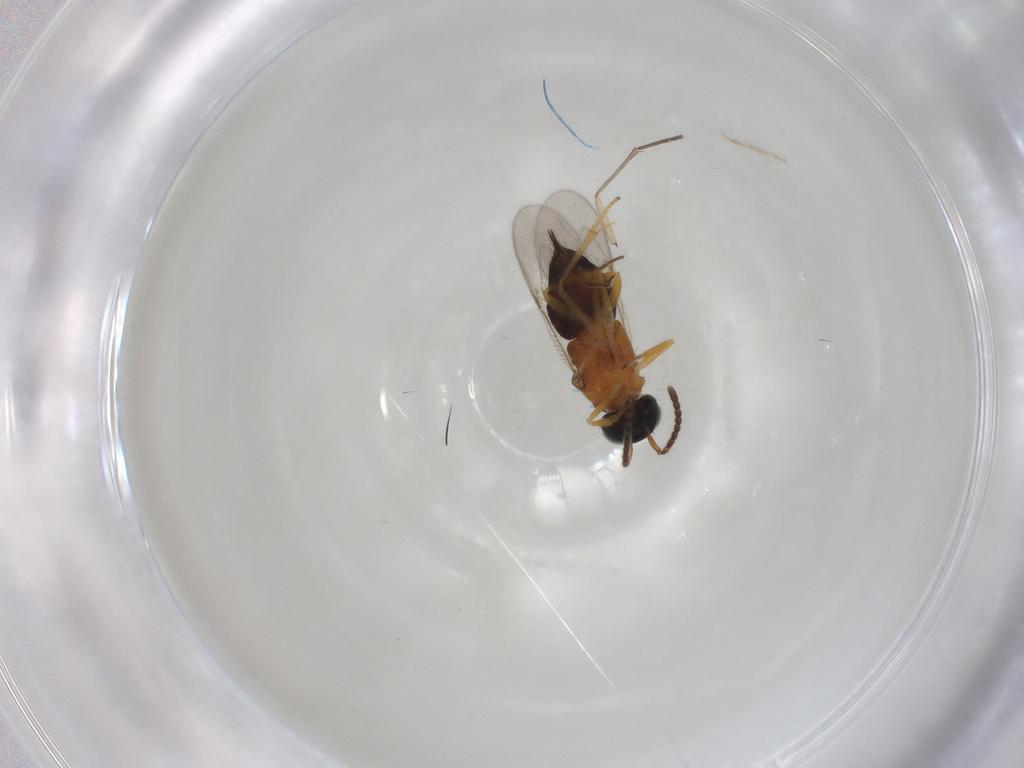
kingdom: Animalia
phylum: Arthropoda
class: Insecta
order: Hymenoptera
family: Encyrtidae
